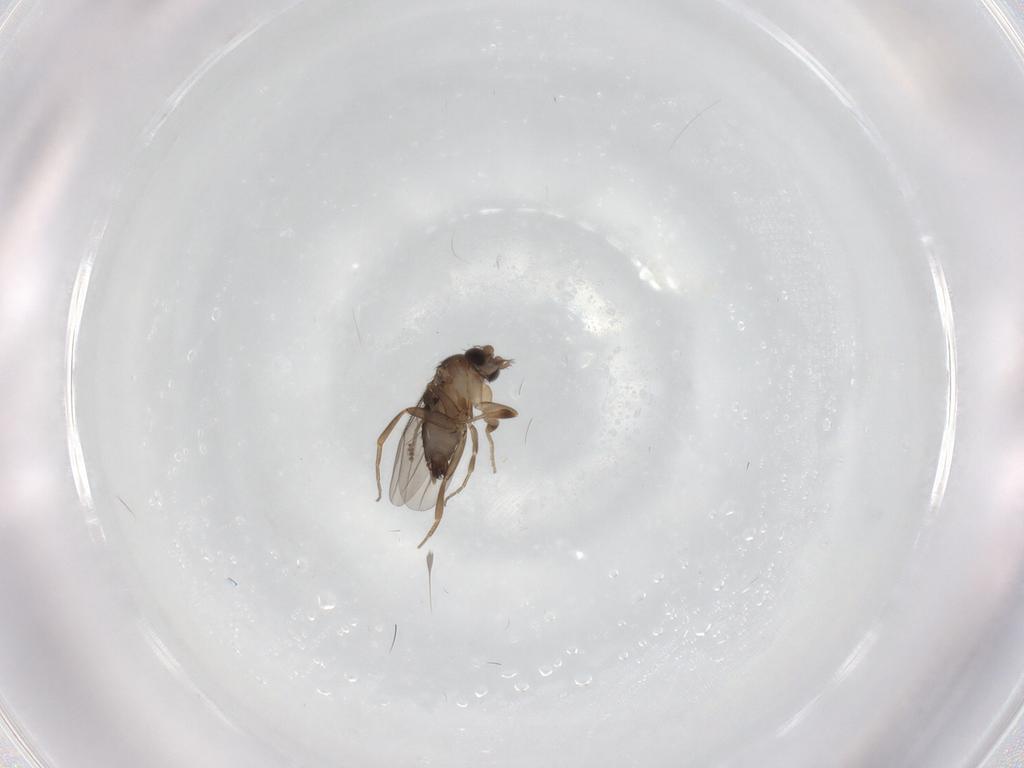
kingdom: Animalia
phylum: Arthropoda
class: Insecta
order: Diptera
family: Phoridae
